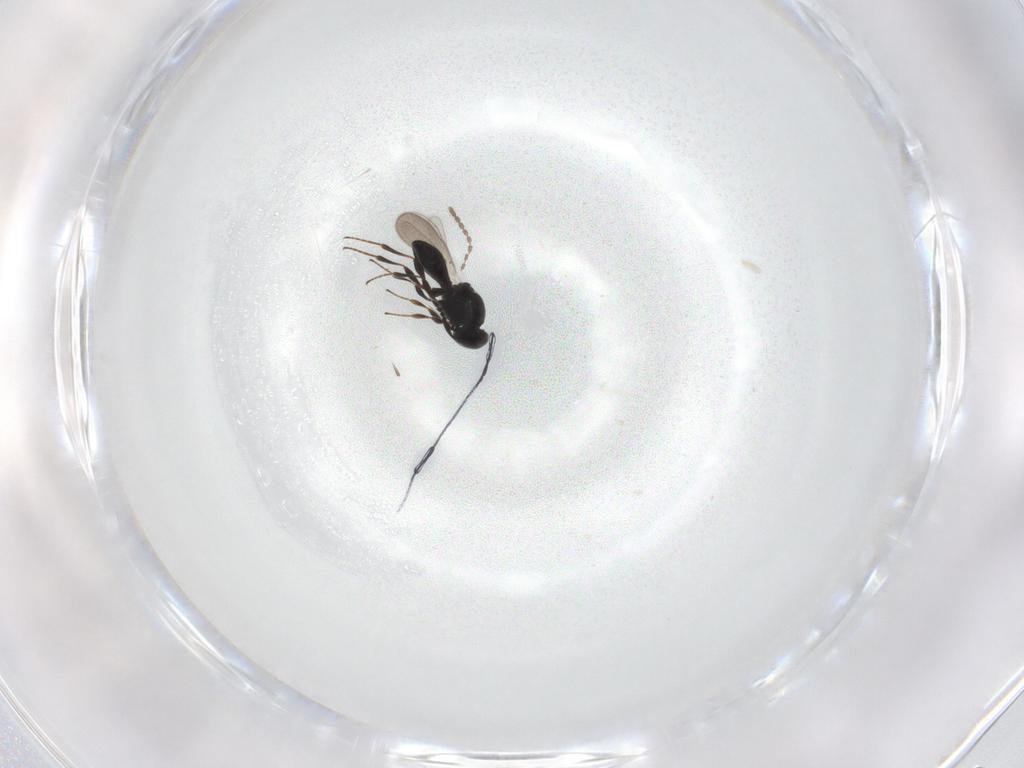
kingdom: Animalia
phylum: Arthropoda
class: Insecta
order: Hymenoptera
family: Platygastridae
